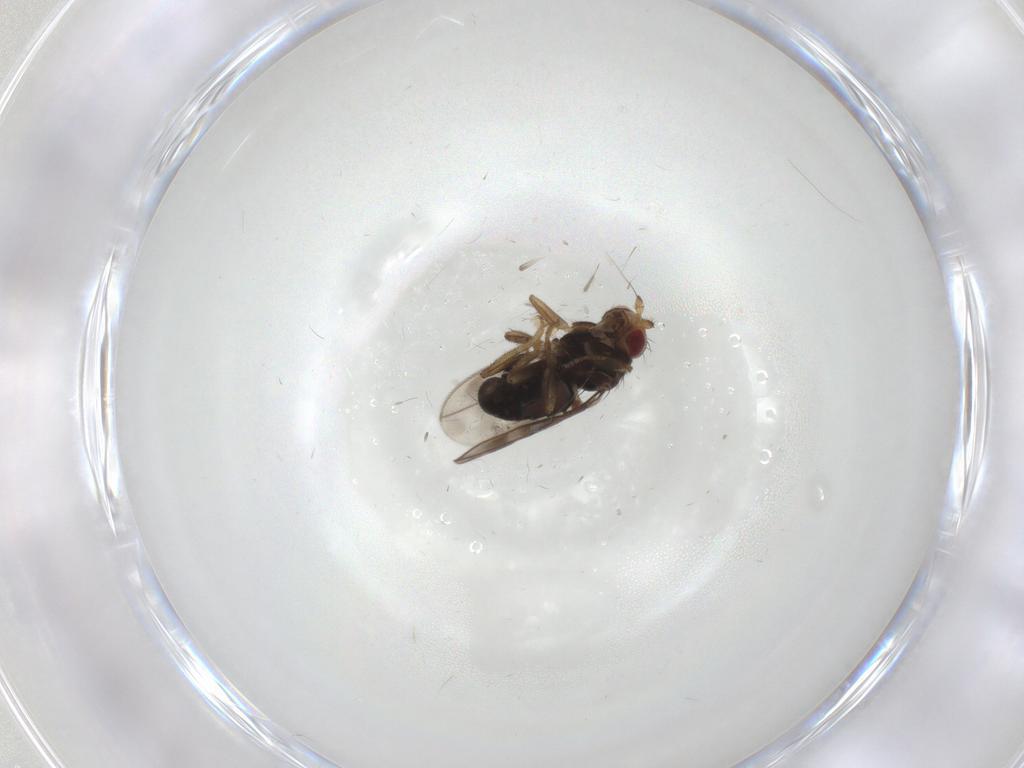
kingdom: Animalia
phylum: Arthropoda
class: Insecta
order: Diptera
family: Sphaeroceridae
